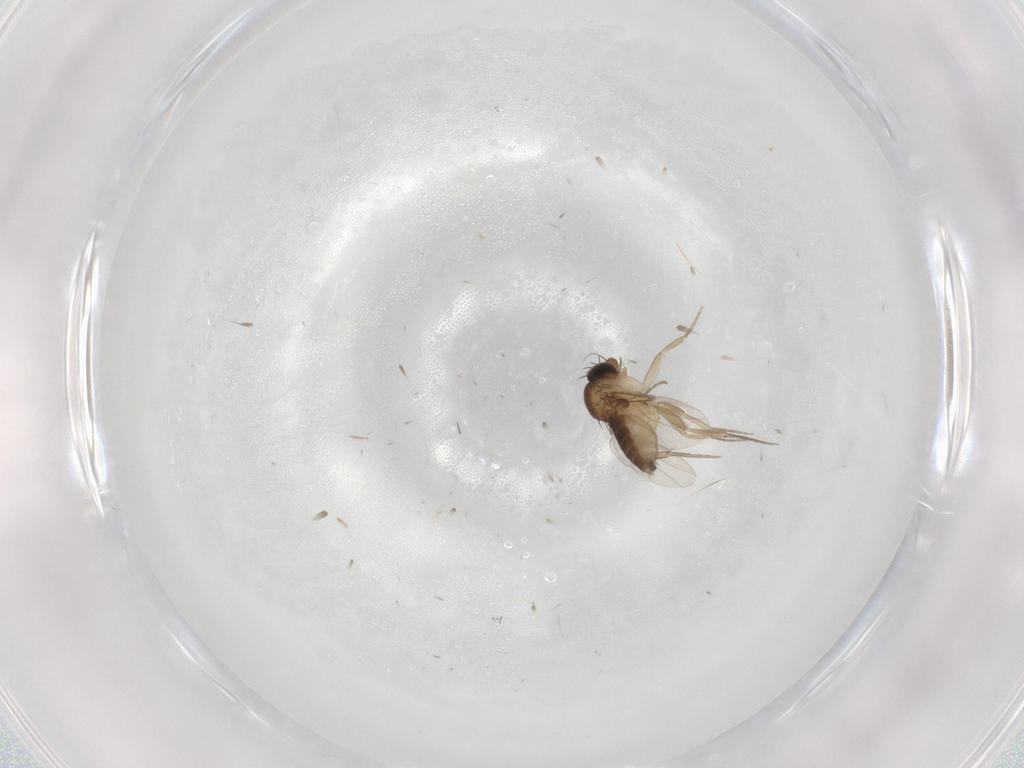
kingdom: Animalia
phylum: Arthropoda
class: Insecta
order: Diptera
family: Phoridae
